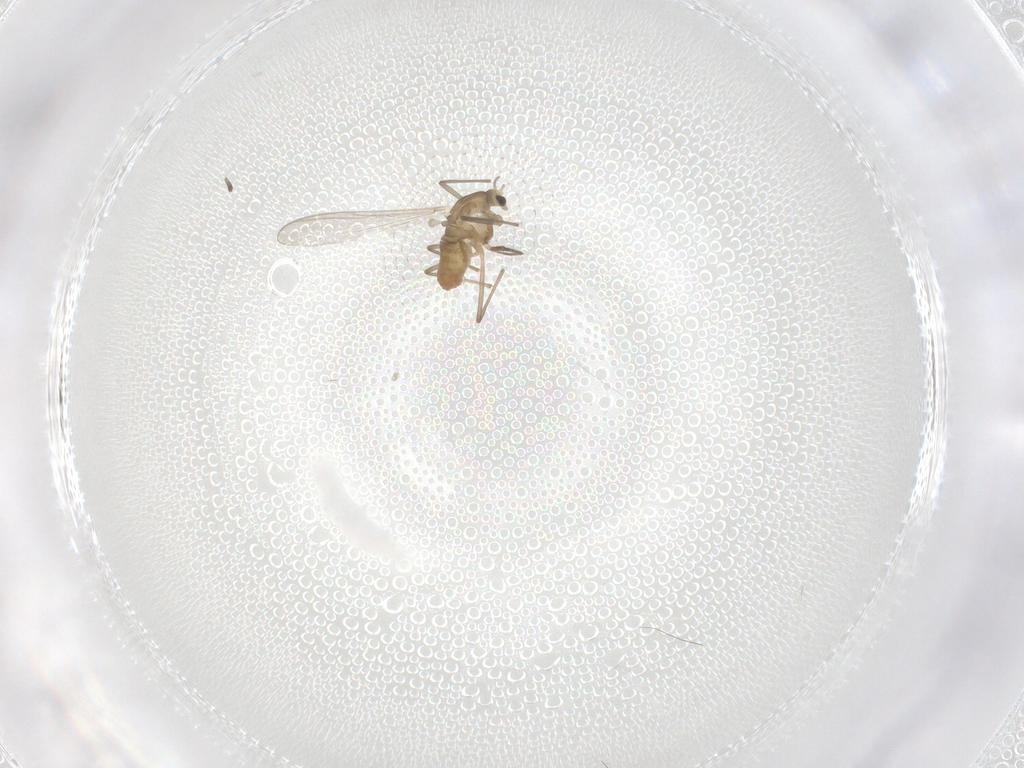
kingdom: Animalia
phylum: Arthropoda
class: Insecta
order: Diptera
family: Chironomidae
